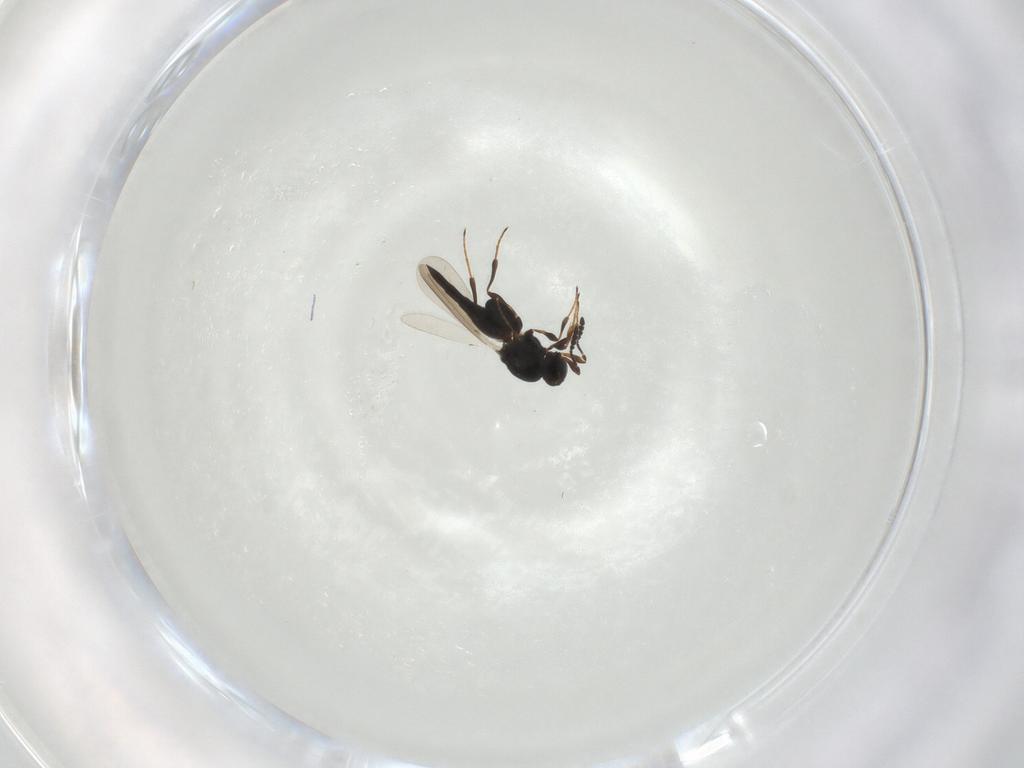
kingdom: Animalia
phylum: Arthropoda
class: Insecta
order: Hymenoptera
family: Platygastridae
